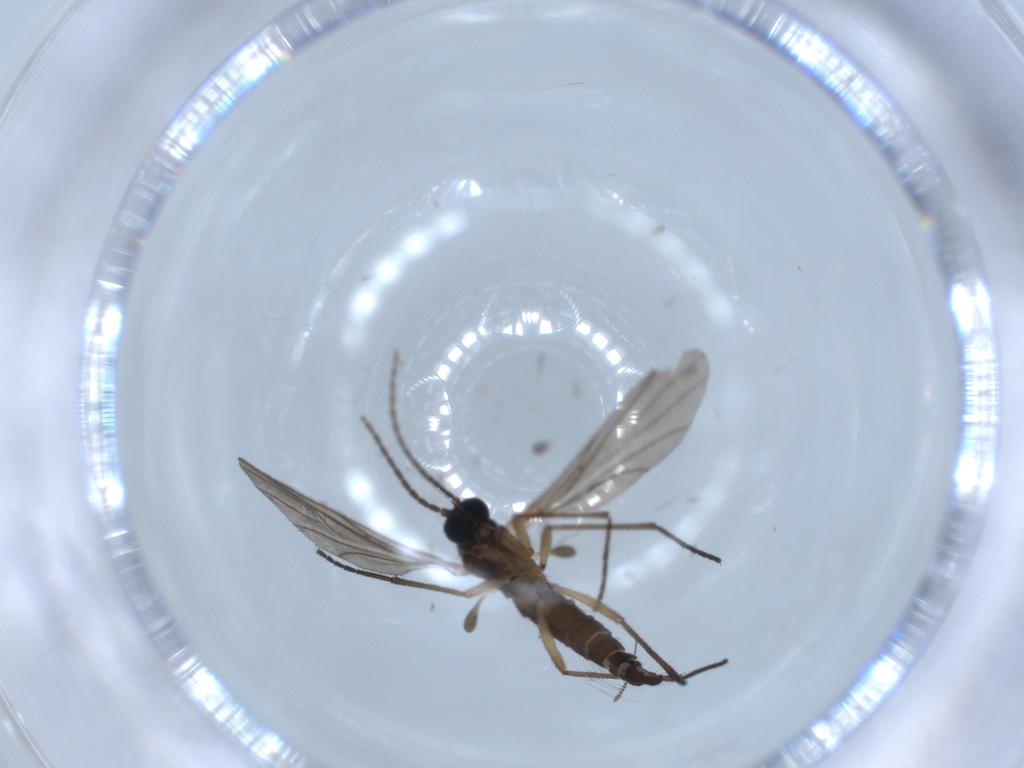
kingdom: Animalia
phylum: Arthropoda
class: Insecta
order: Diptera
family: Sciaridae
